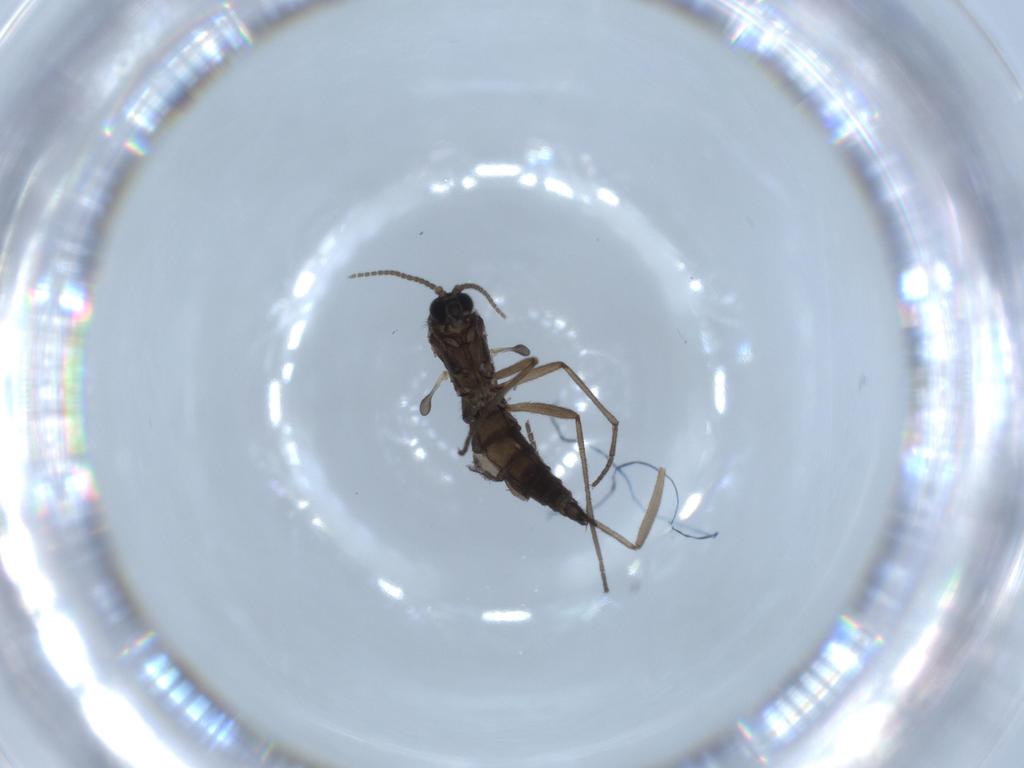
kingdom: Animalia
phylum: Arthropoda
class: Insecta
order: Diptera
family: Sciaridae
